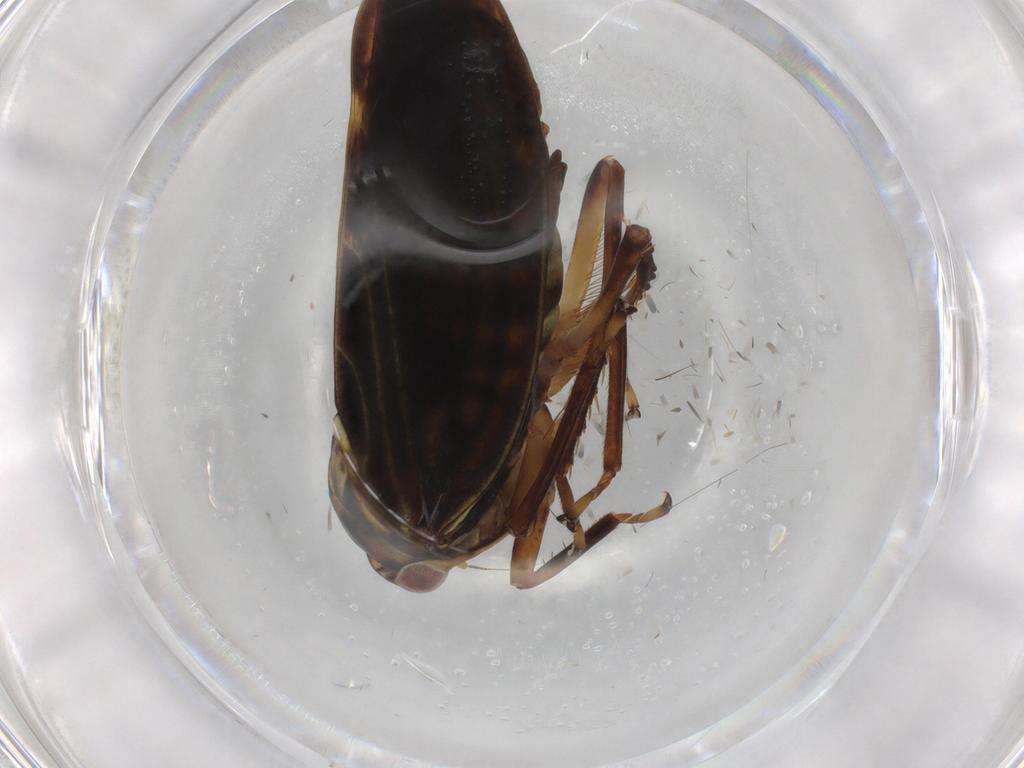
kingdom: Animalia
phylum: Arthropoda
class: Insecta
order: Hemiptera
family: Cicadellidae
